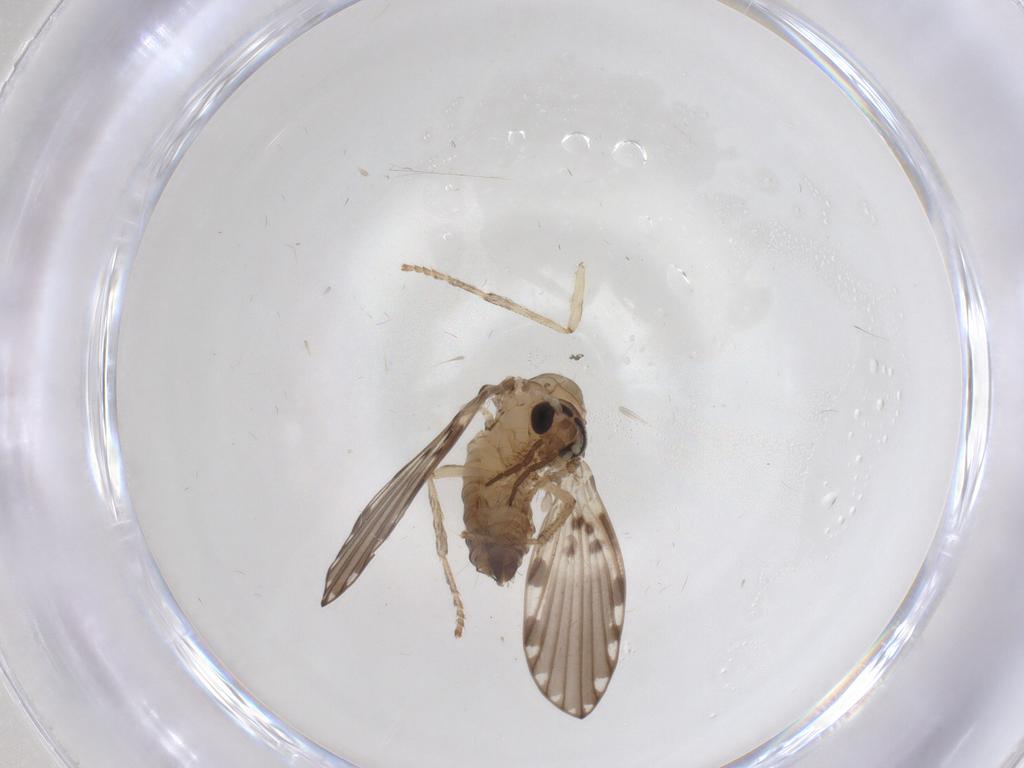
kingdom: Animalia
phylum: Arthropoda
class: Insecta
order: Diptera
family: Psychodidae
